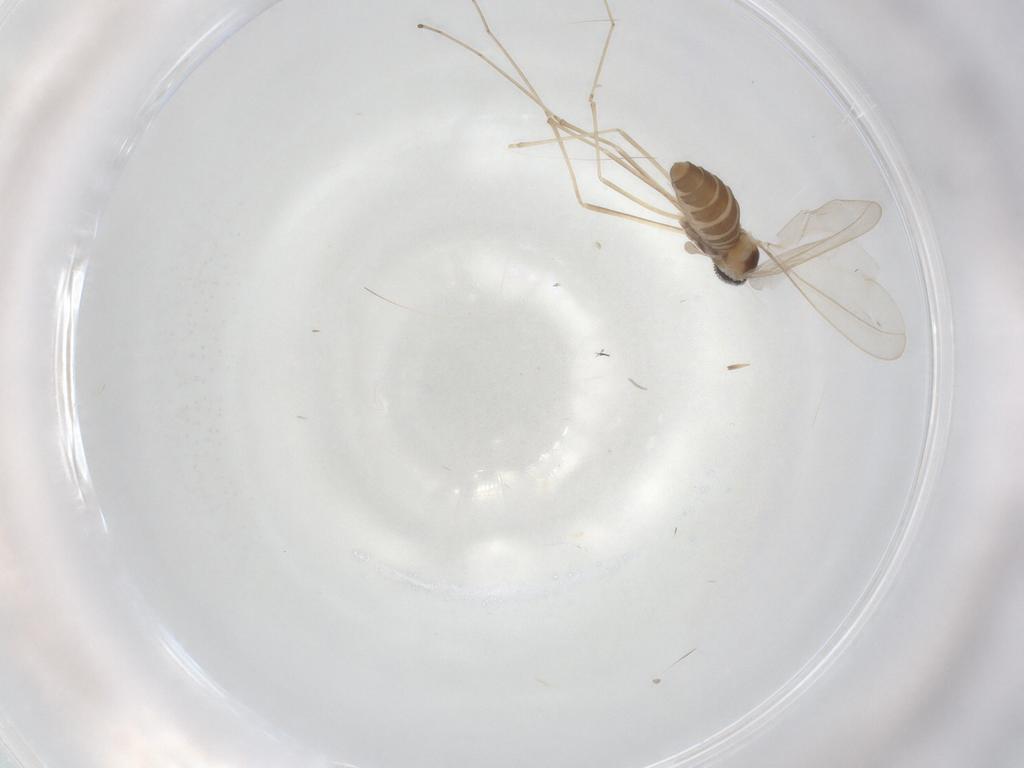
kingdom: Animalia
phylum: Arthropoda
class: Insecta
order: Diptera
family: Cecidomyiidae
